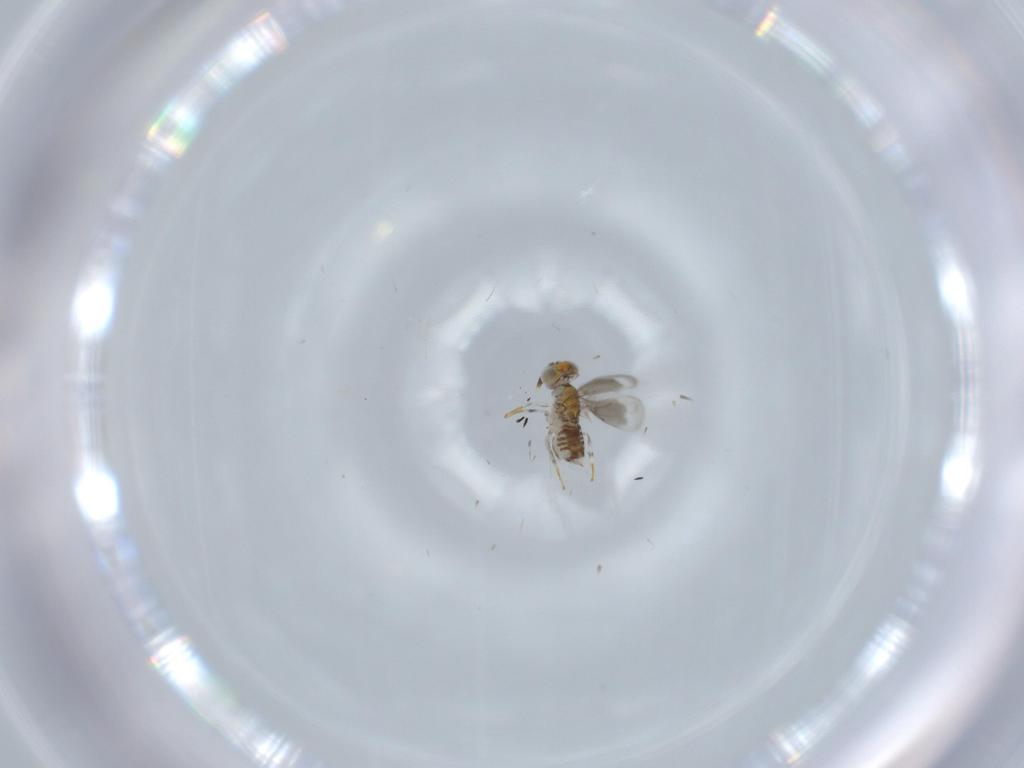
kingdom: Animalia
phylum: Arthropoda
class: Insecta
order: Hymenoptera
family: Aphelinidae
